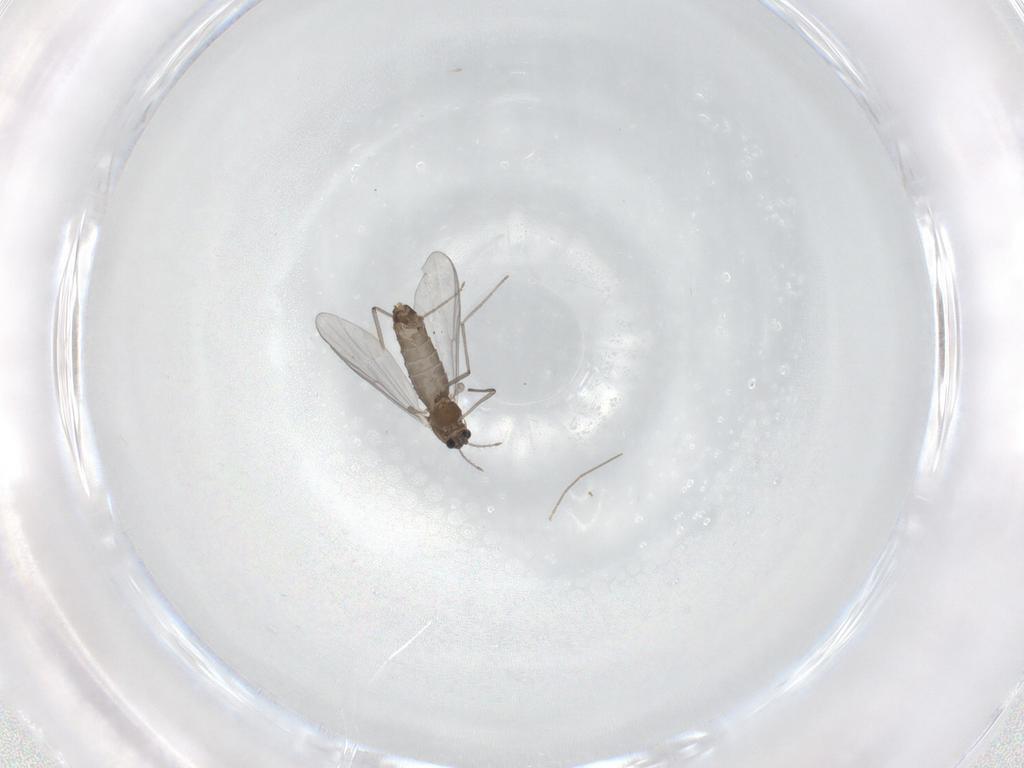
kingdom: Animalia
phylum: Arthropoda
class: Insecta
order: Diptera
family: Chironomidae
